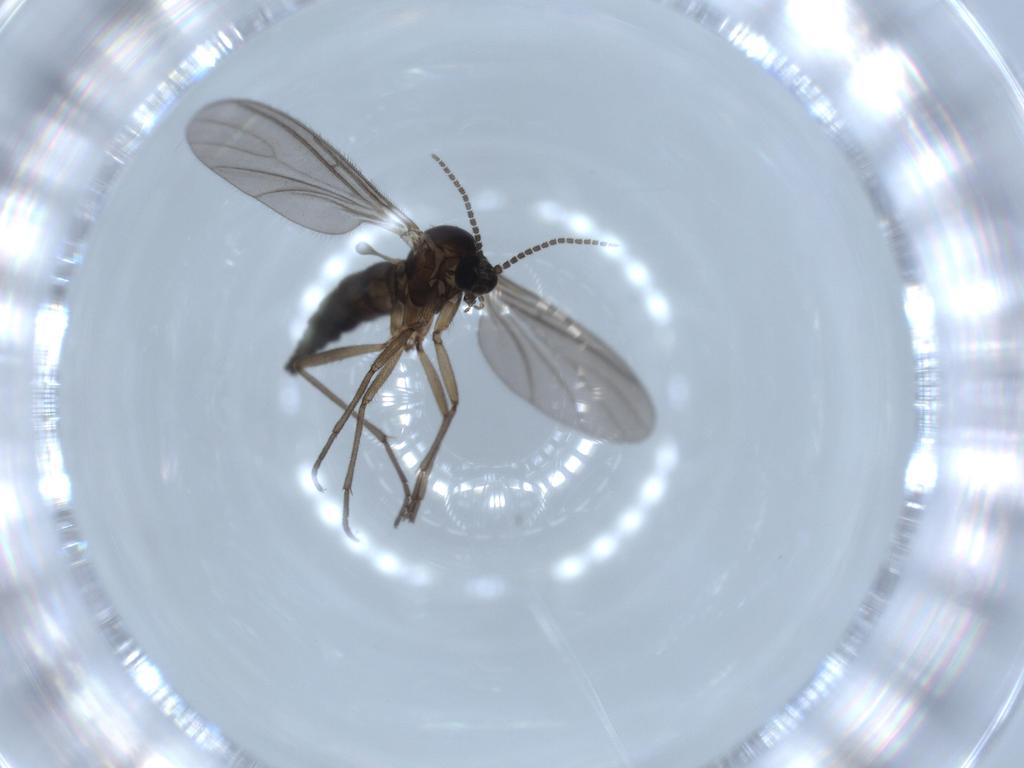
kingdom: Animalia
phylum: Arthropoda
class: Insecta
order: Diptera
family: Sciaridae
